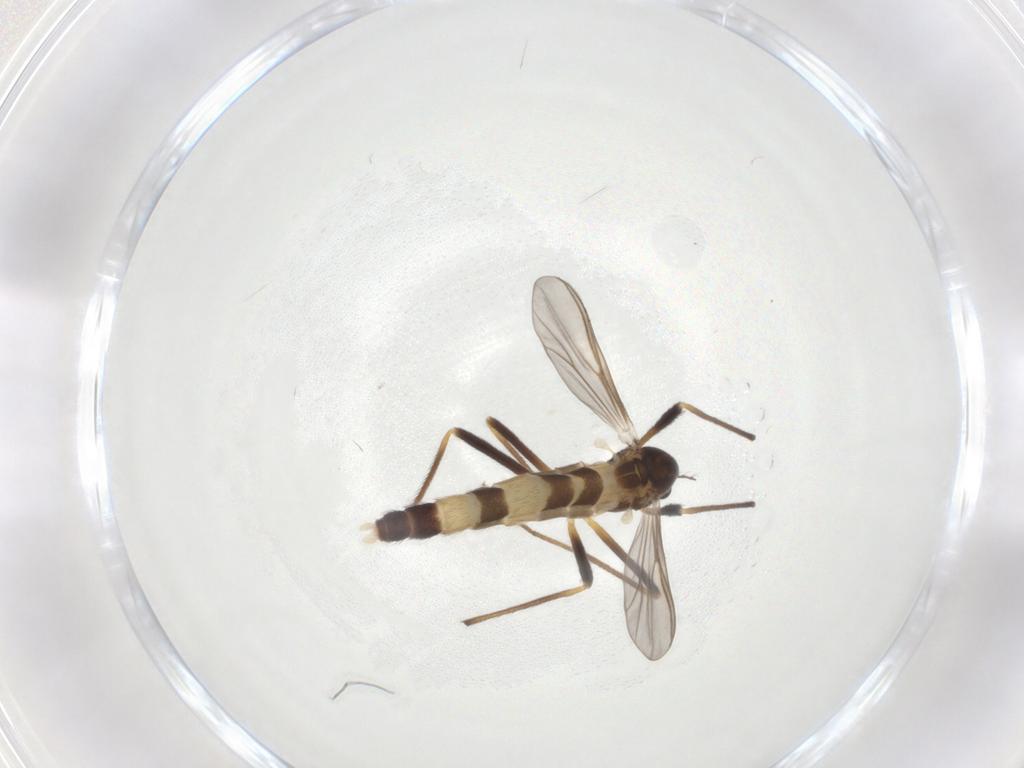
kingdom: Animalia
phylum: Arthropoda
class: Insecta
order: Diptera
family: Chironomidae
